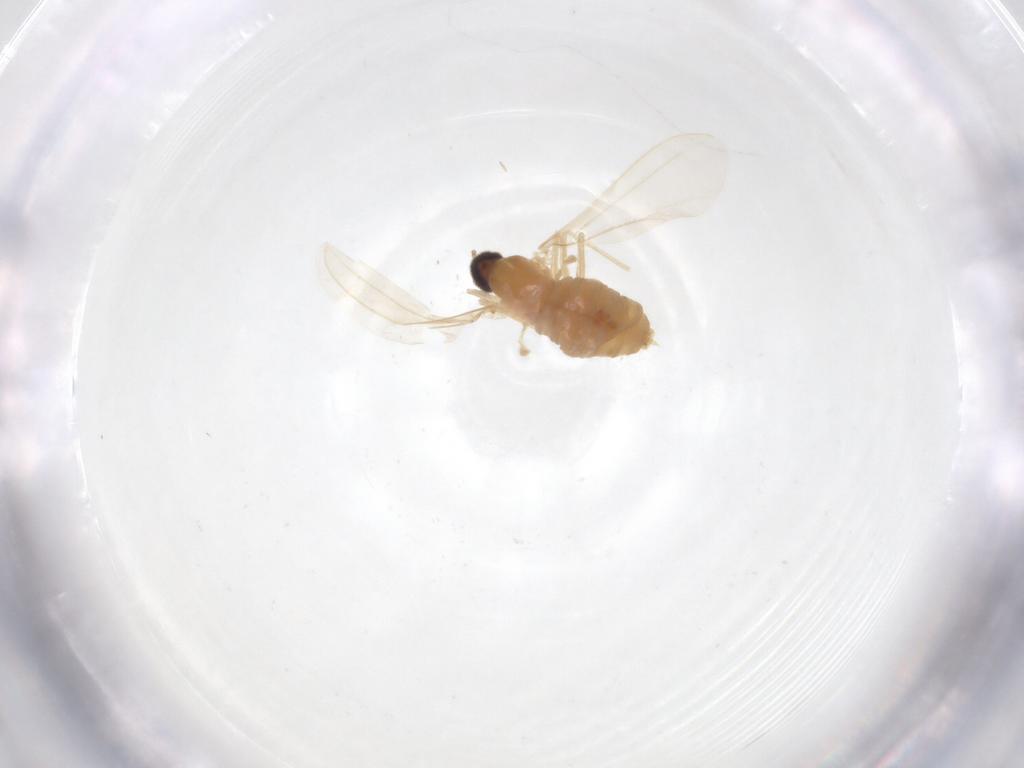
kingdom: Animalia
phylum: Arthropoda
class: Insecta
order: Diptera
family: Cecidomyiidae
